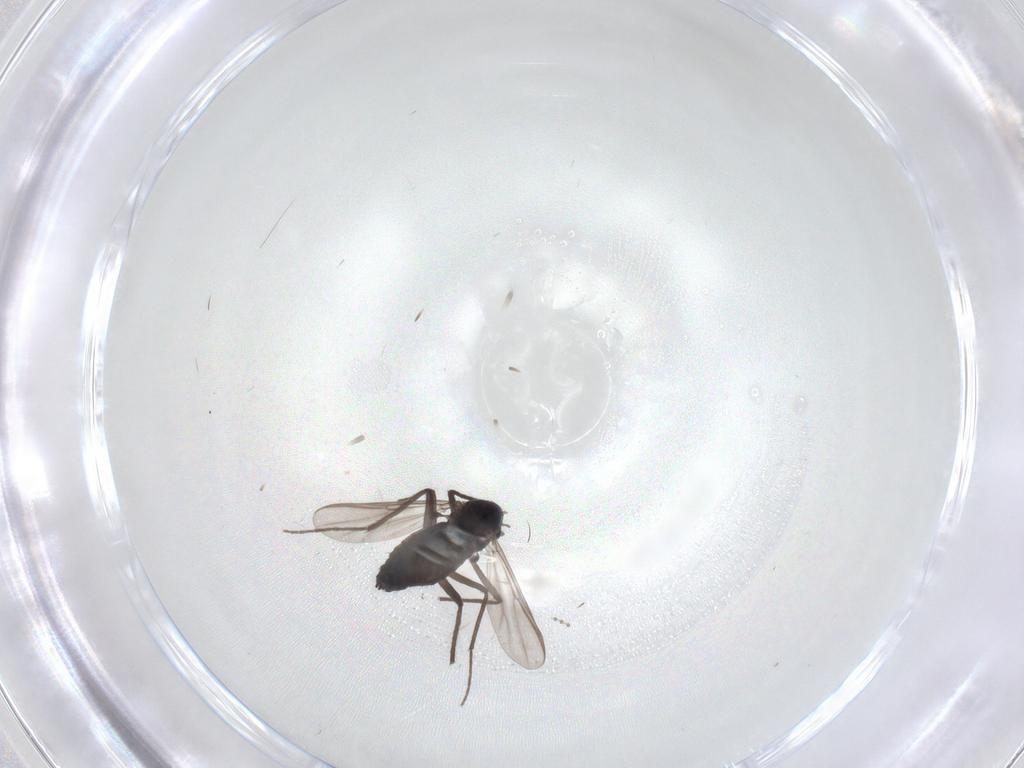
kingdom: Animalia
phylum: Arthropoda
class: Insecta
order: Diptera
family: Chironomidae
